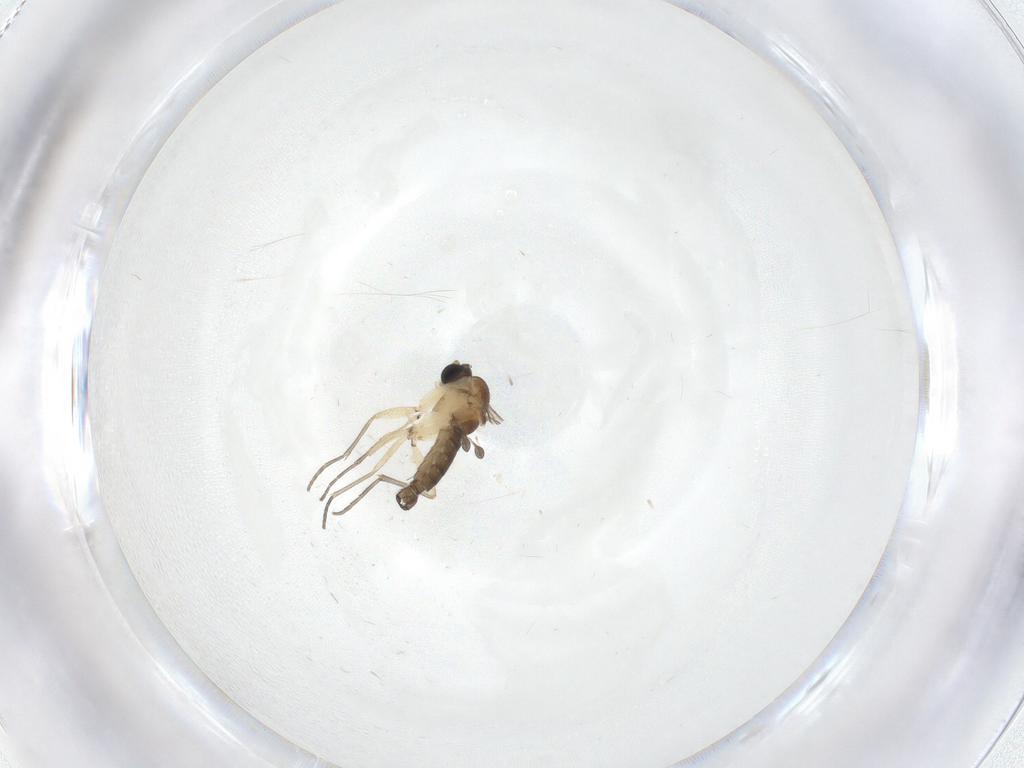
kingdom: Animalia
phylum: Arthropoda
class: Insecta
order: Diptera
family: Sciaridae
